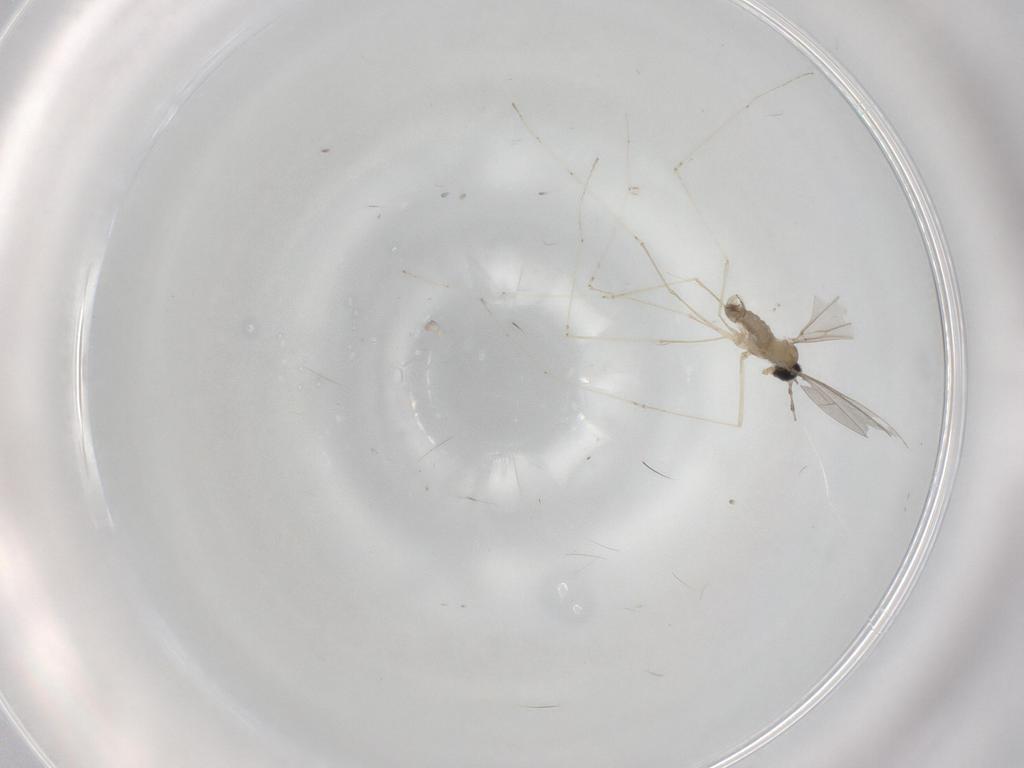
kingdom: Animalia
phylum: Arthropoda
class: Insecta
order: Diptera
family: Cecidomyiidae
